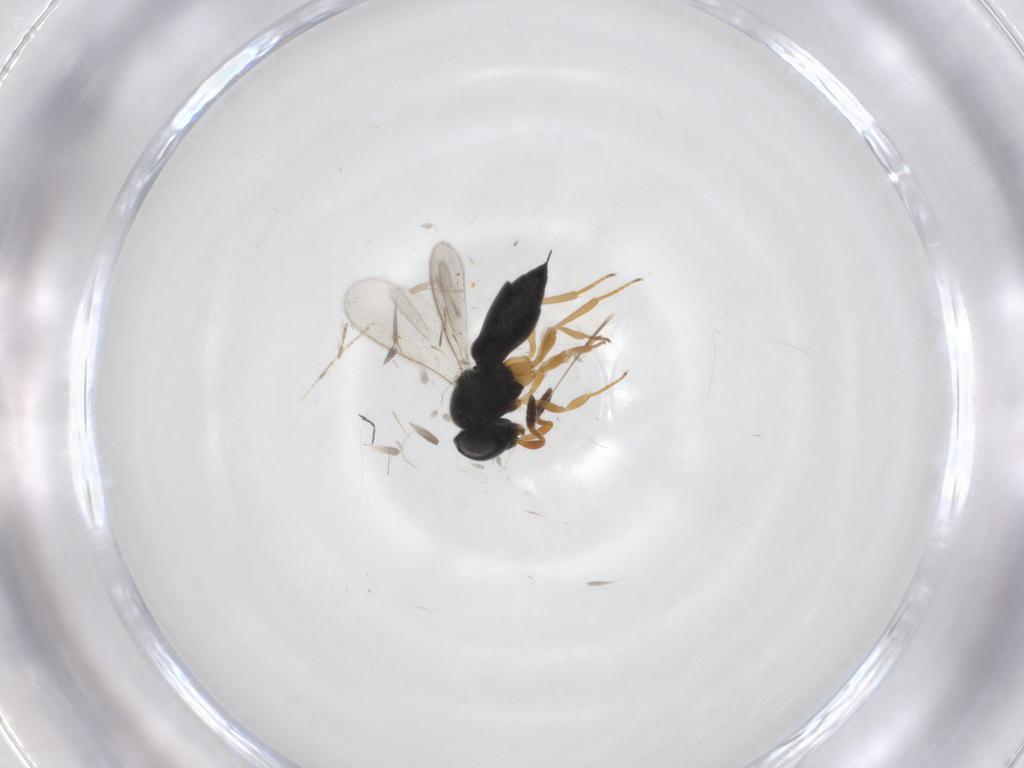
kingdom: Animalia
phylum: Arthropoda
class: Insecta
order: Hymenoptera
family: Scelionidae
